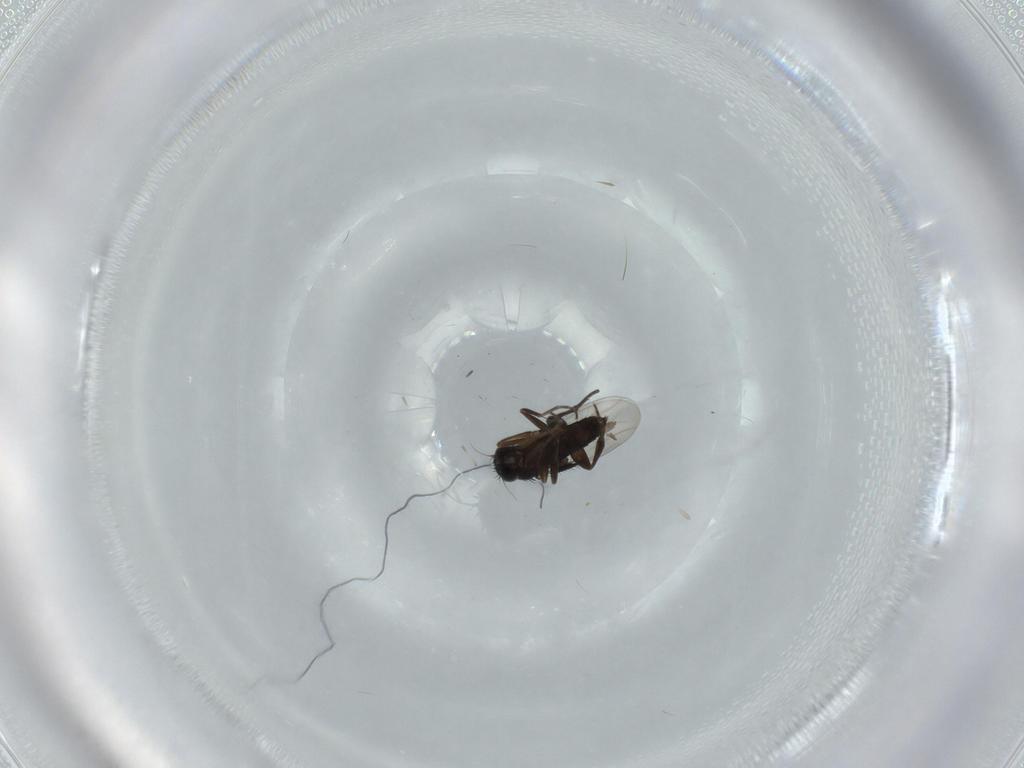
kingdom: Animalia
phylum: Arthropoda
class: Insecta
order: Diptera
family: Phoridae
